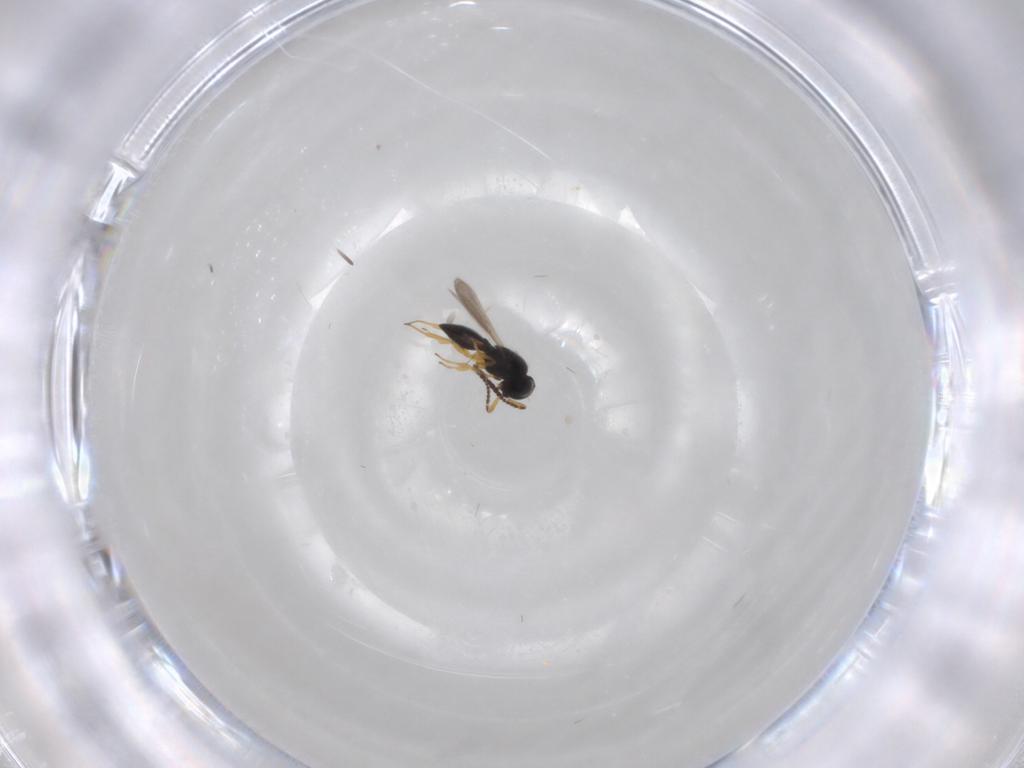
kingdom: Animalia
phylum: Arthropoda
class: Insecta
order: Hymenoptera
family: Scelionidae
